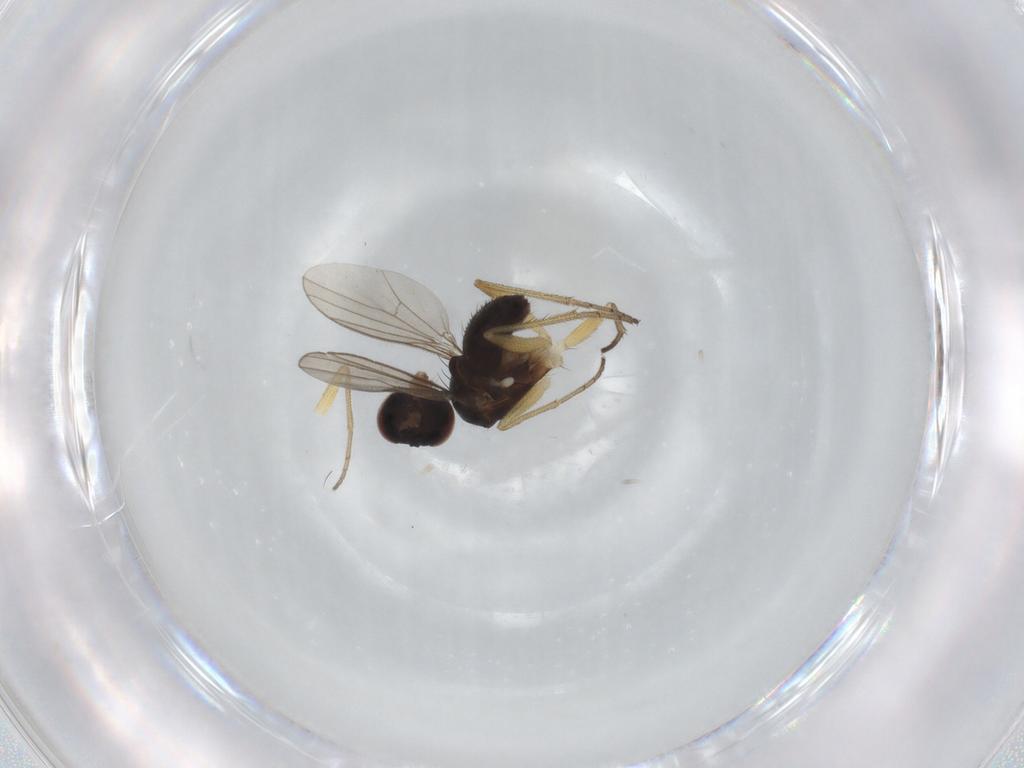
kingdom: Animalia
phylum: Arthropoda
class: Insecta
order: Diptera
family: Dolichopodidae
